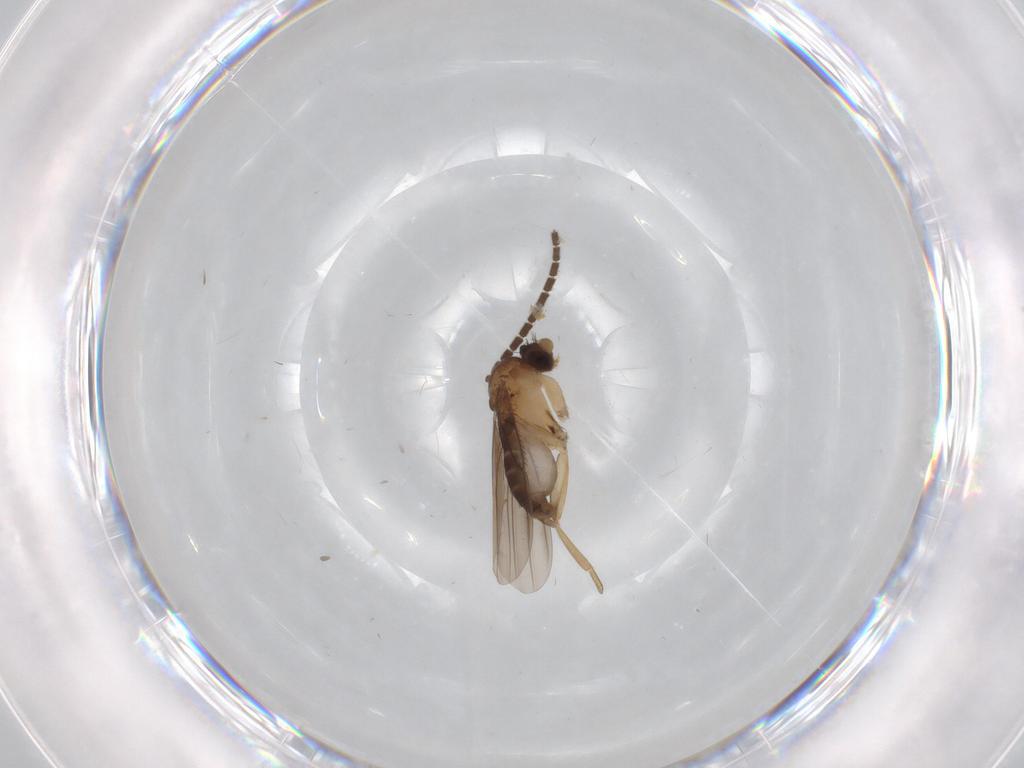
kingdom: Animalia
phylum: Arthropoda
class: Insecta
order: Diptera
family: Sciaridae
